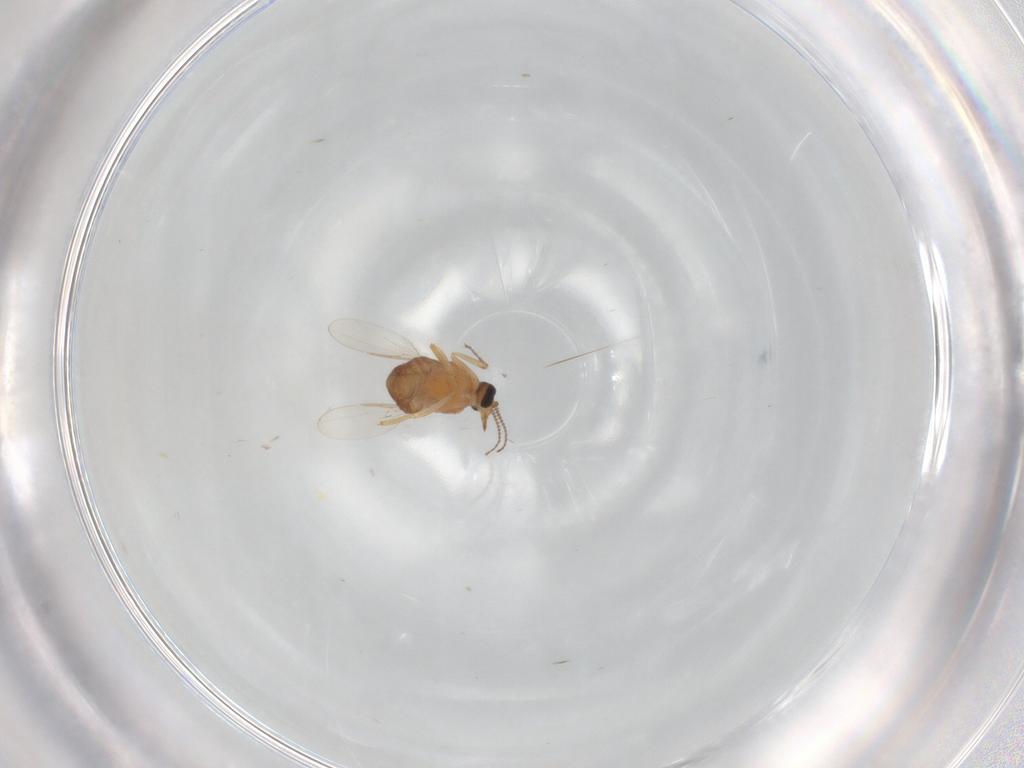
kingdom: Animalia
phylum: Arthropoda
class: Insecta
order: Diptera
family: Ceratopogonidae
